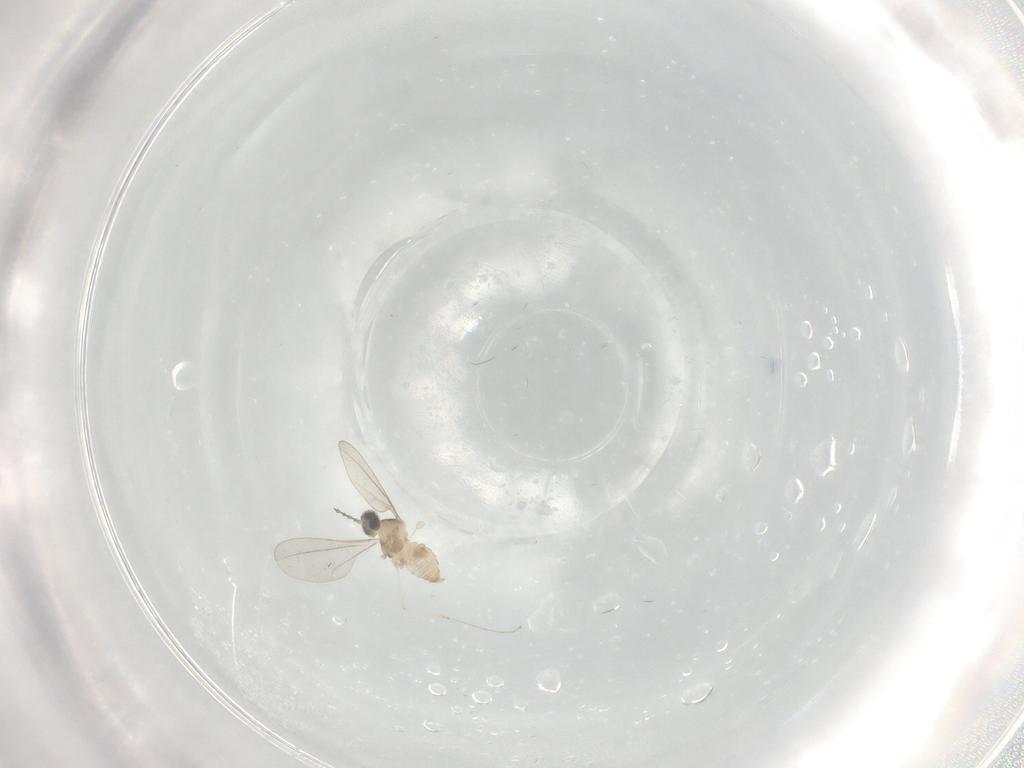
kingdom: Animalia
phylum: Arthropoda
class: Insecta
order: Diptera
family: Cecidomyiidae
